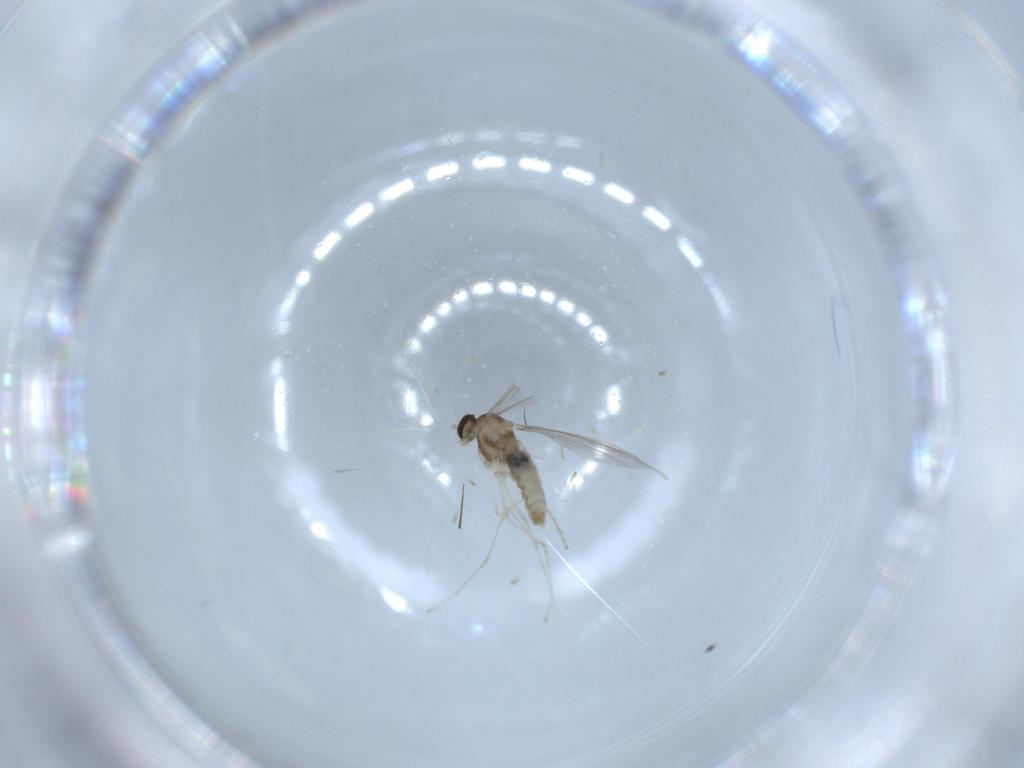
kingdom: Animalia
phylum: Arthropoda
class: Insecta
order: Diptera
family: Cecidomyiidae
